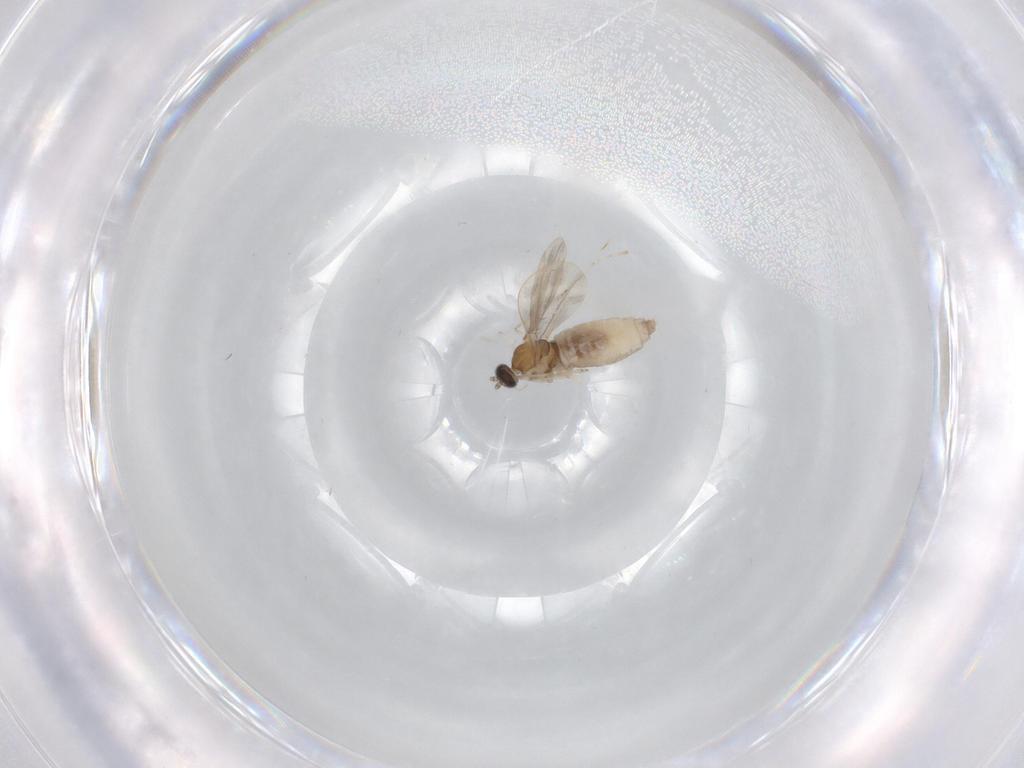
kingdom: Animalia
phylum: Arthropoda
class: Insecta
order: Diptera
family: Cecidomyiidae
